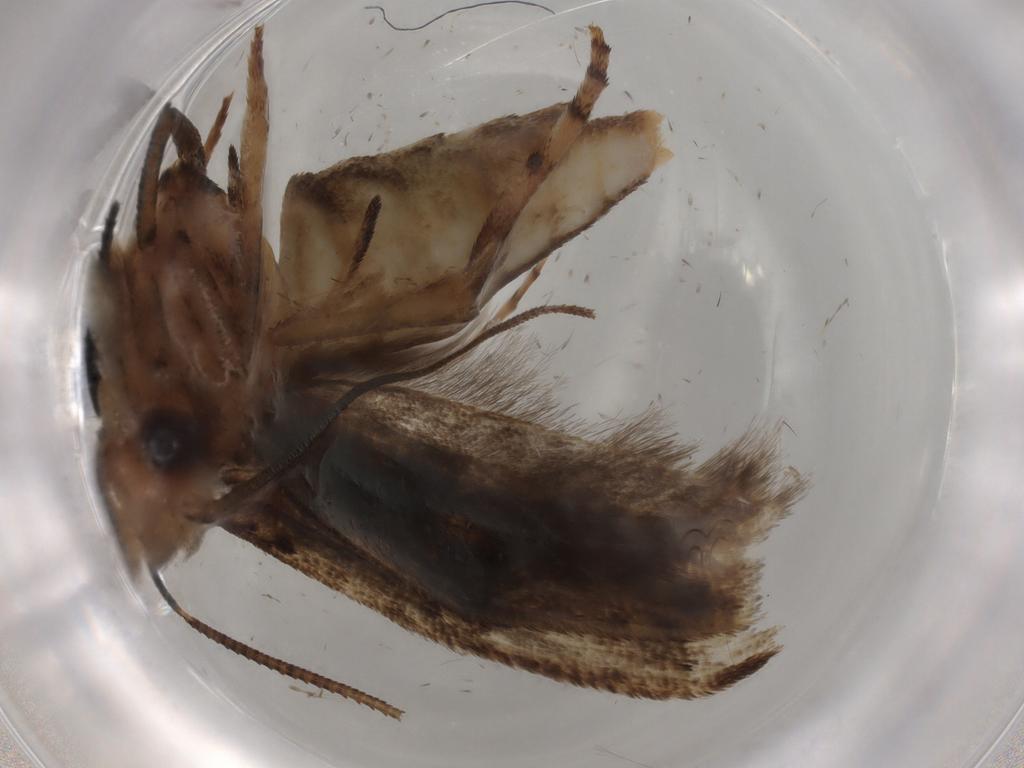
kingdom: Animalia
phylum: Arthropoda
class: Insecta
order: Lepidoptera
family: Yponomeutidae
